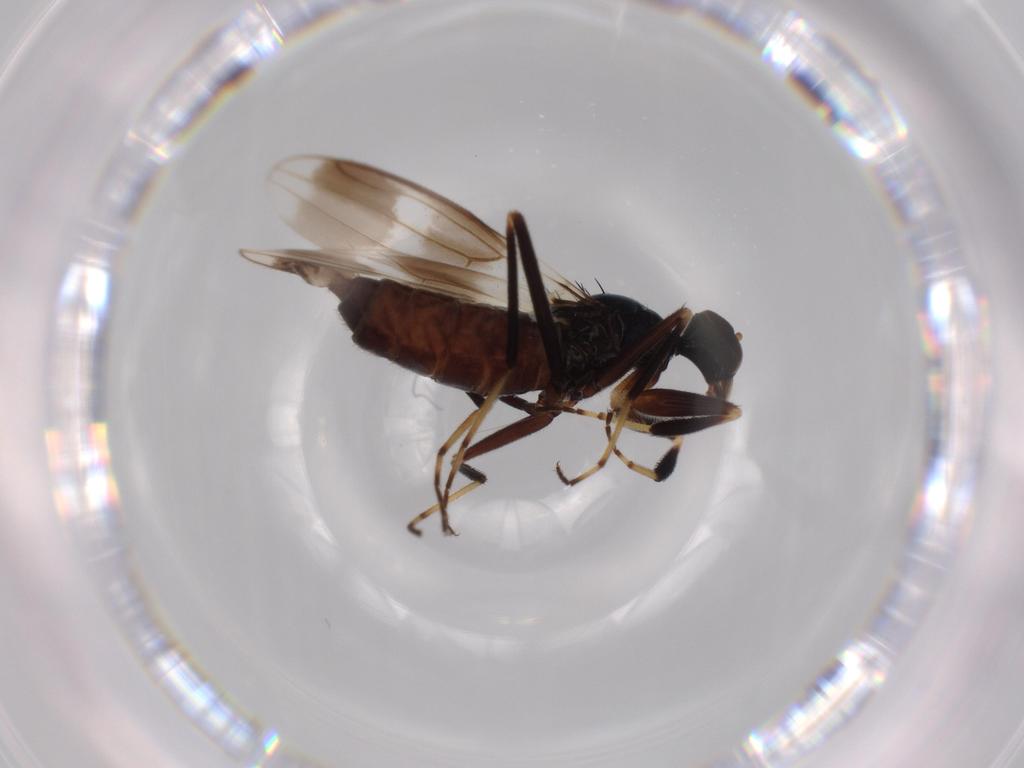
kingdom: Animalia
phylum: Arthropoda
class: Insecta
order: Diptera
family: Hybotidae
